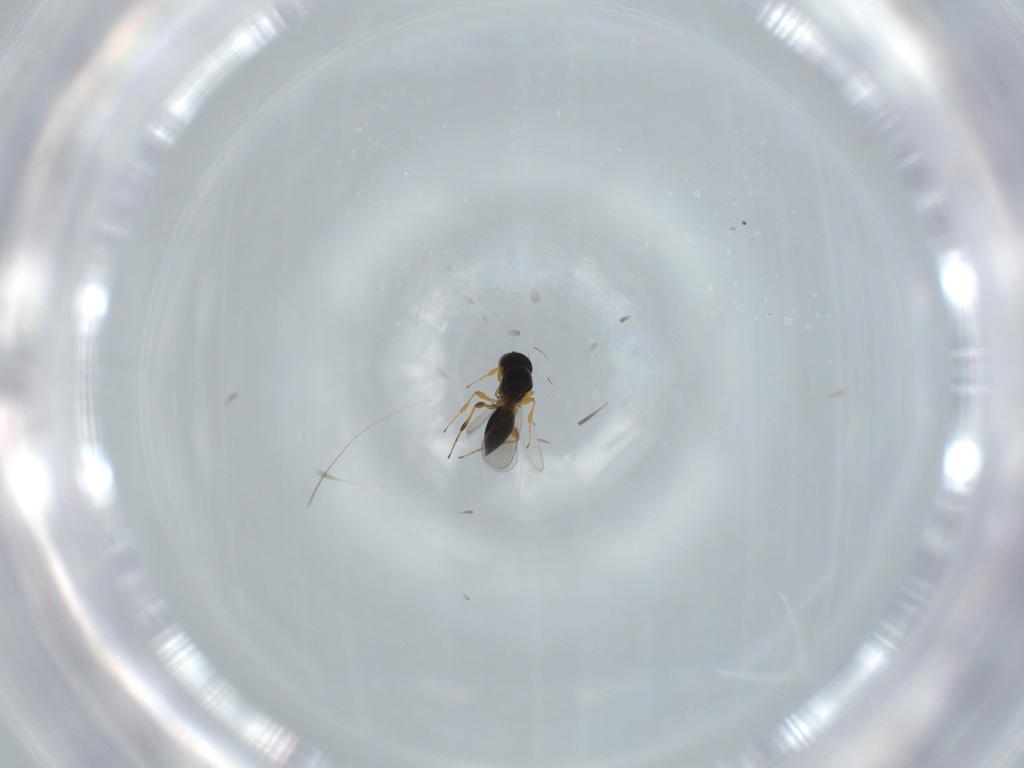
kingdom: Animalia
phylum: Arthropoda
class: Insecta
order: Hymenoptera
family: Platygastridae
